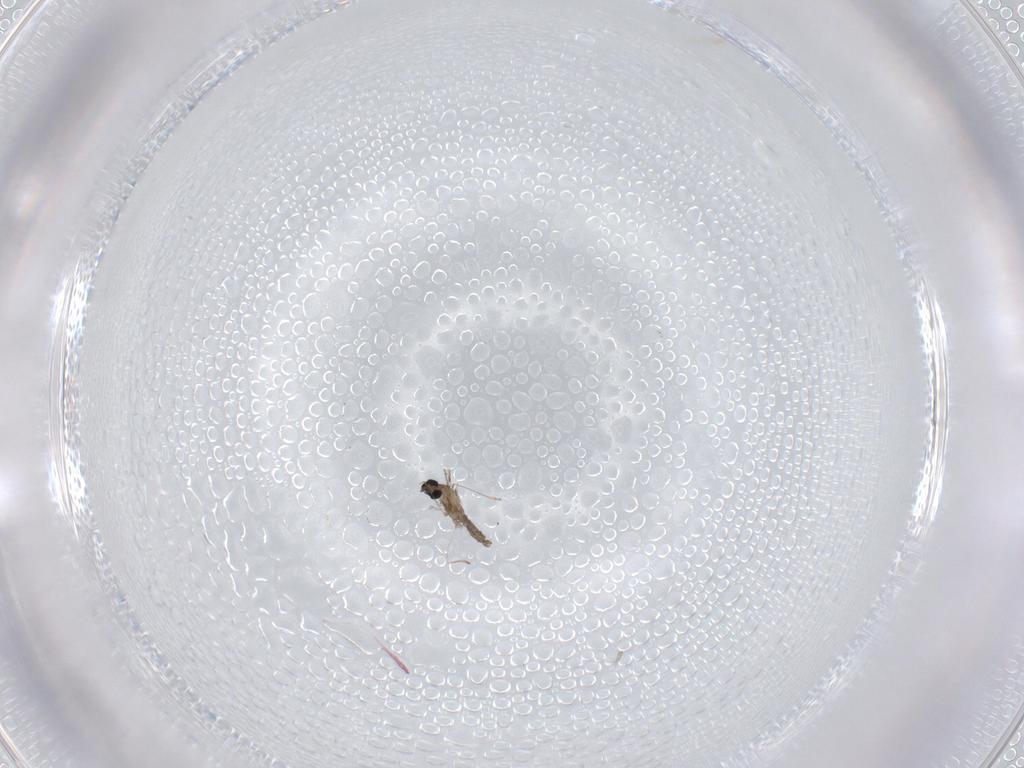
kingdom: Animalia
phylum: Arthropoda
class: Insecta
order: Diptera
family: Cecidomyiidae
